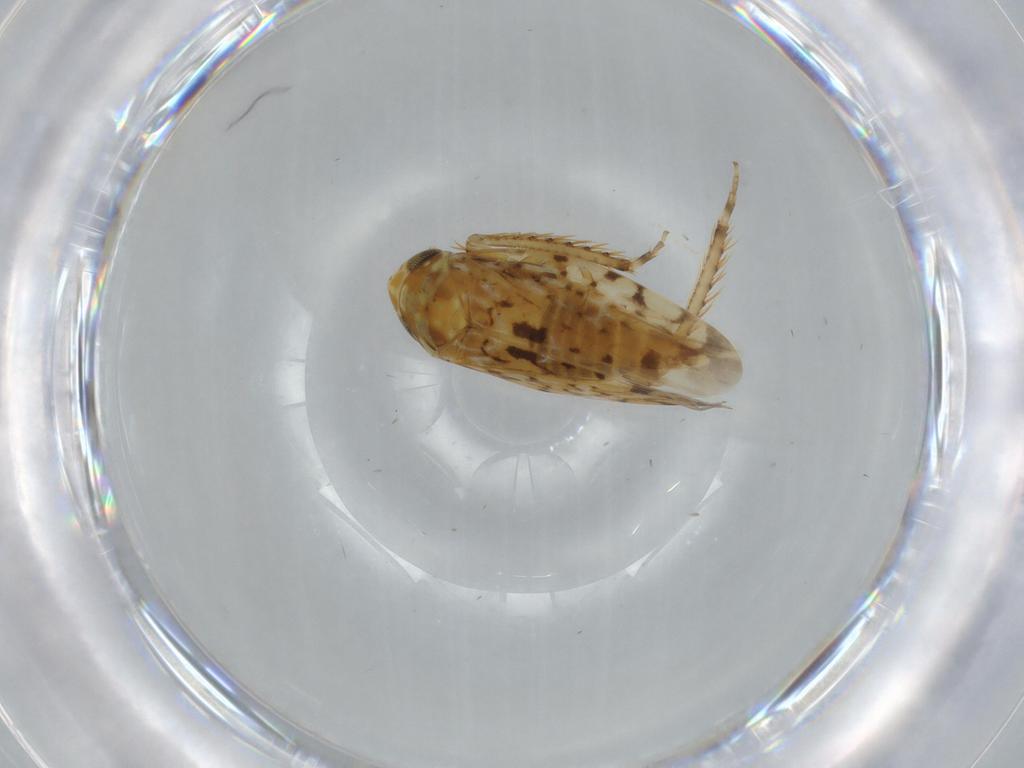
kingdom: Animalia
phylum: Arthropoda
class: Insecta
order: Hemiptera
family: Cicadellidae
